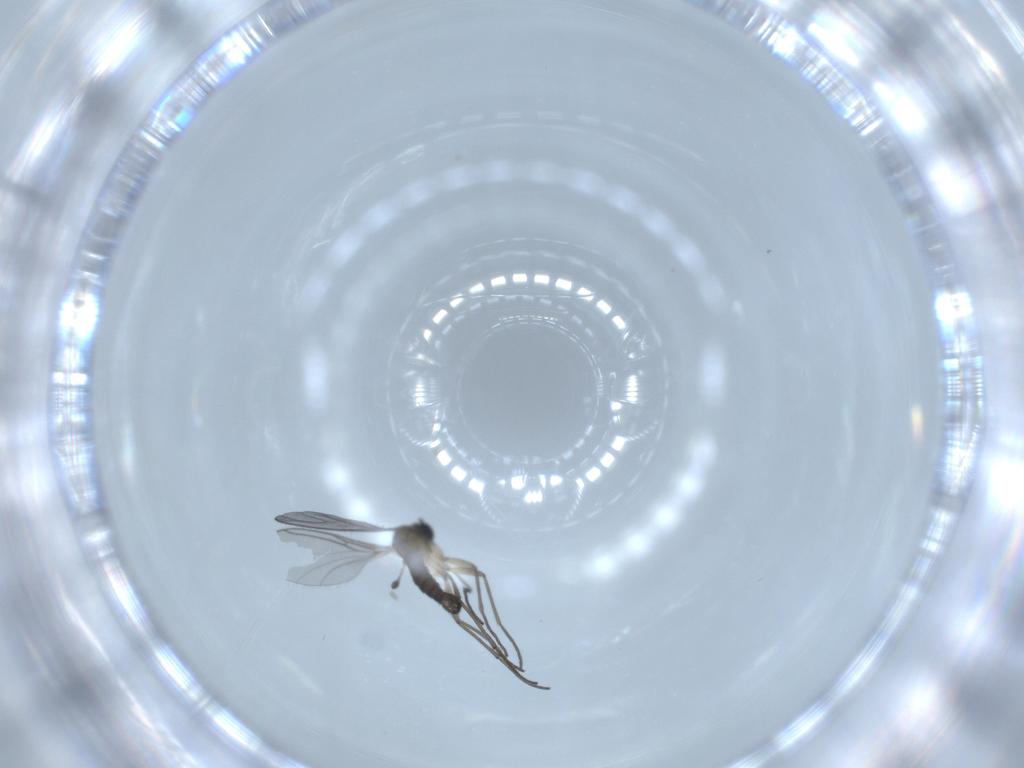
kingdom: Animalia
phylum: Arthropoda
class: Insecta
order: Diptera
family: Sciaridae
